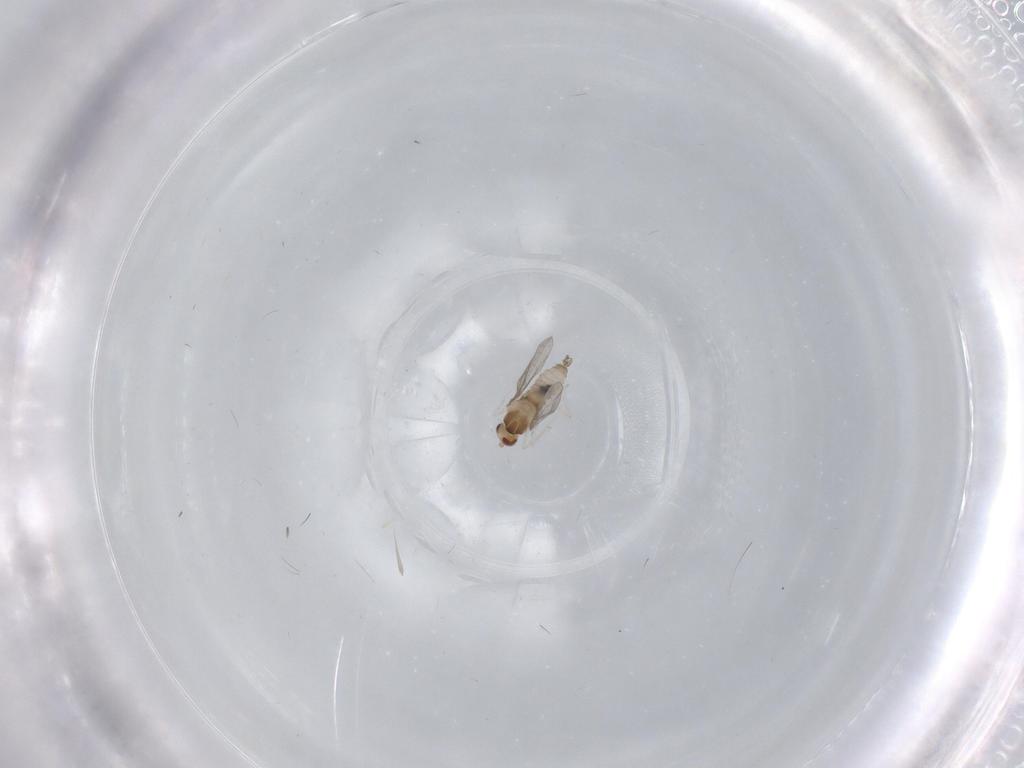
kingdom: Animalia
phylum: Arthropoda
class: Insecta
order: Diptera
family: Cecidomyiidae
